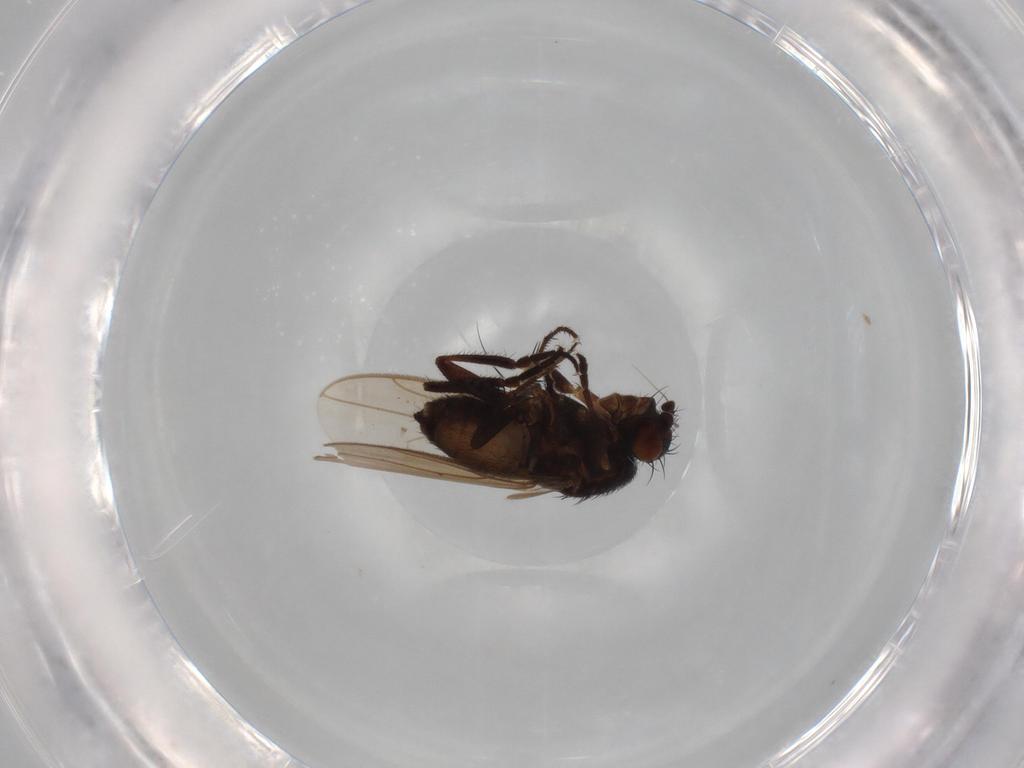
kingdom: Animalia
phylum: Arthropoda
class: Insecta
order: Diptera
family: Sphaeroceridae
